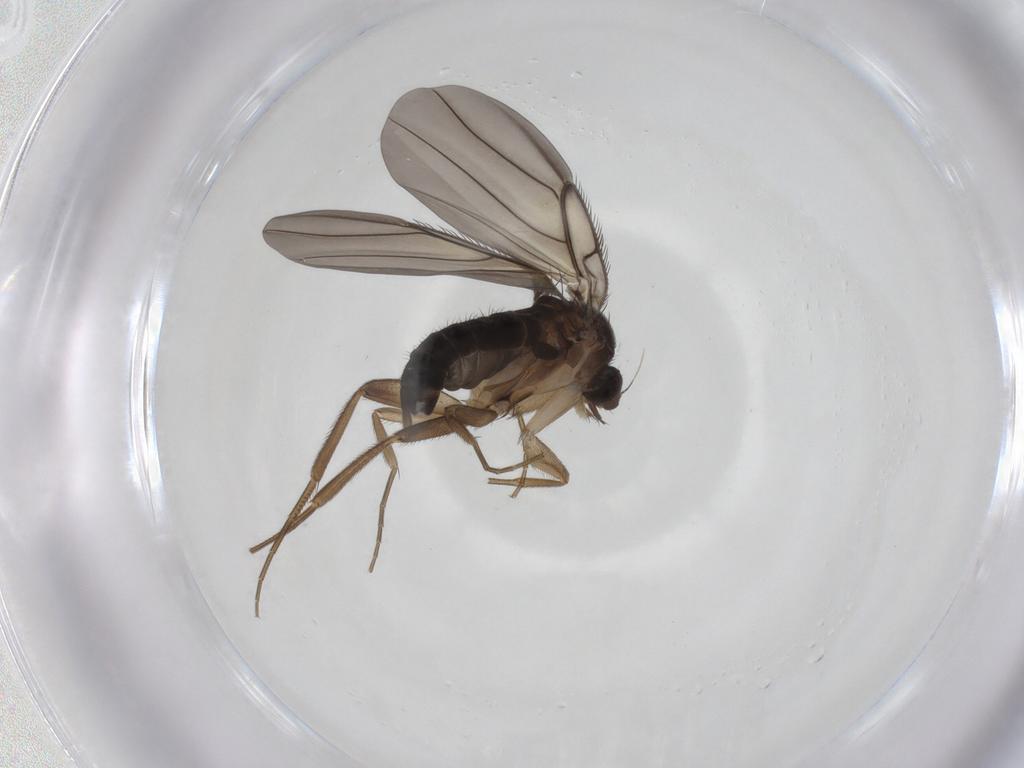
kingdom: Animalia
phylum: Arthropoda
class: Insecta
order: Diptera
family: Phoridae
